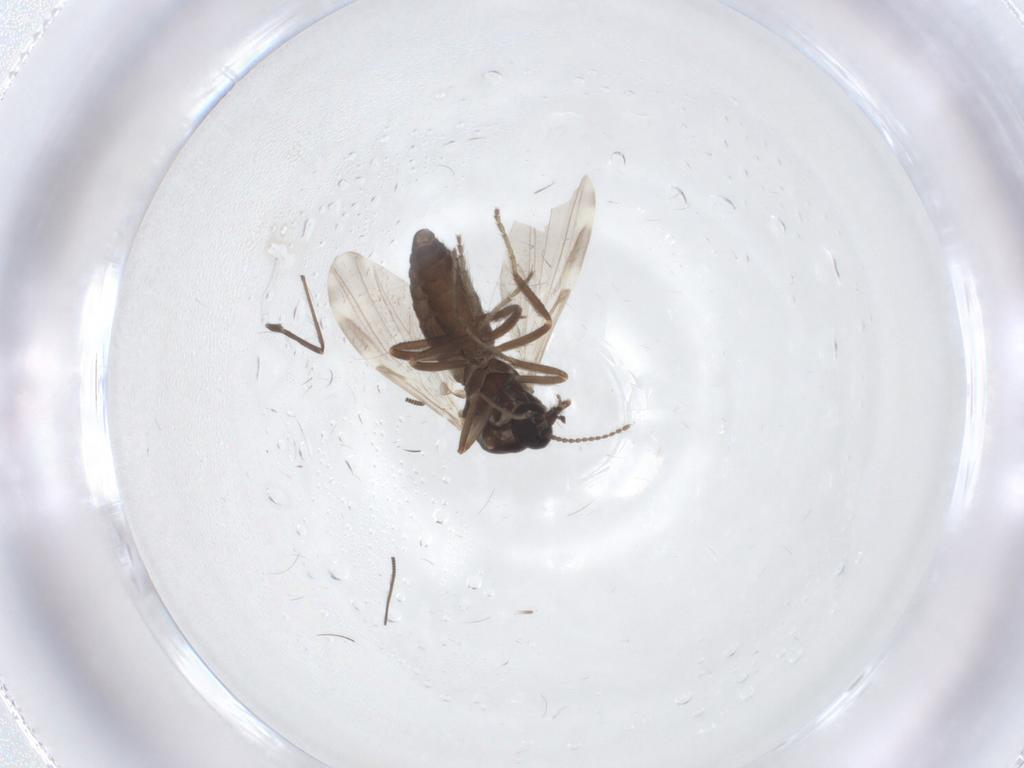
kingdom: Animalia
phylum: Arthropoda
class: Insecta
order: Diptera
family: Ceratopogonidae
